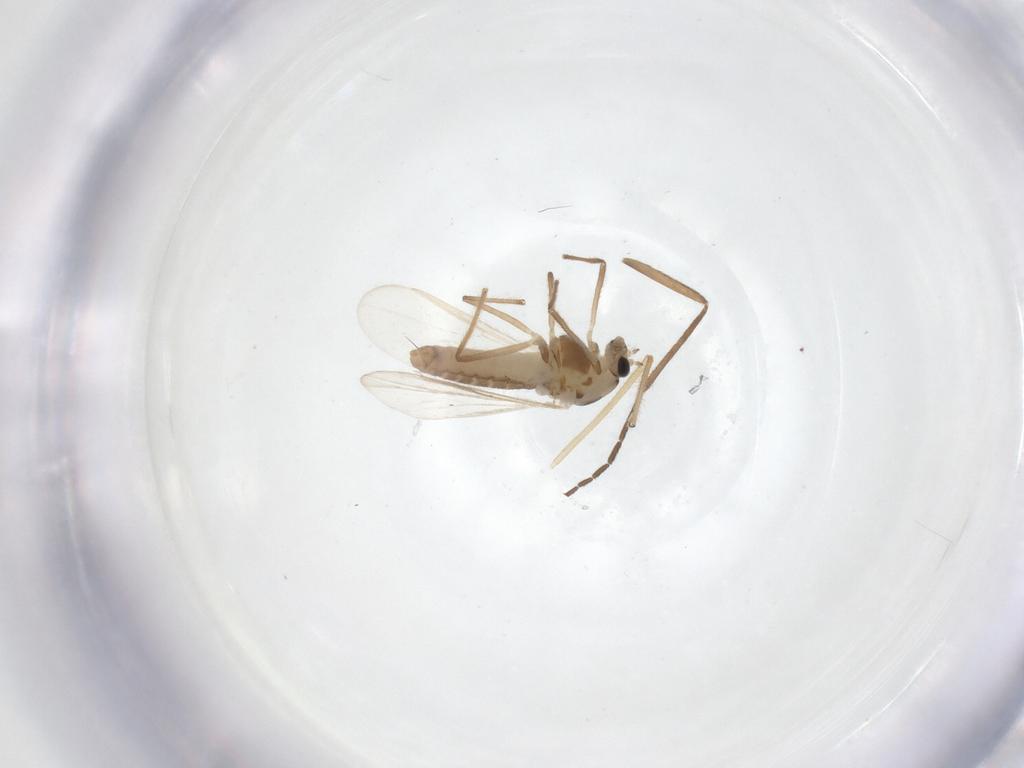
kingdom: Animalia
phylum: Arthropoda
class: Insecta
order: Diptera
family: Chironomidae
